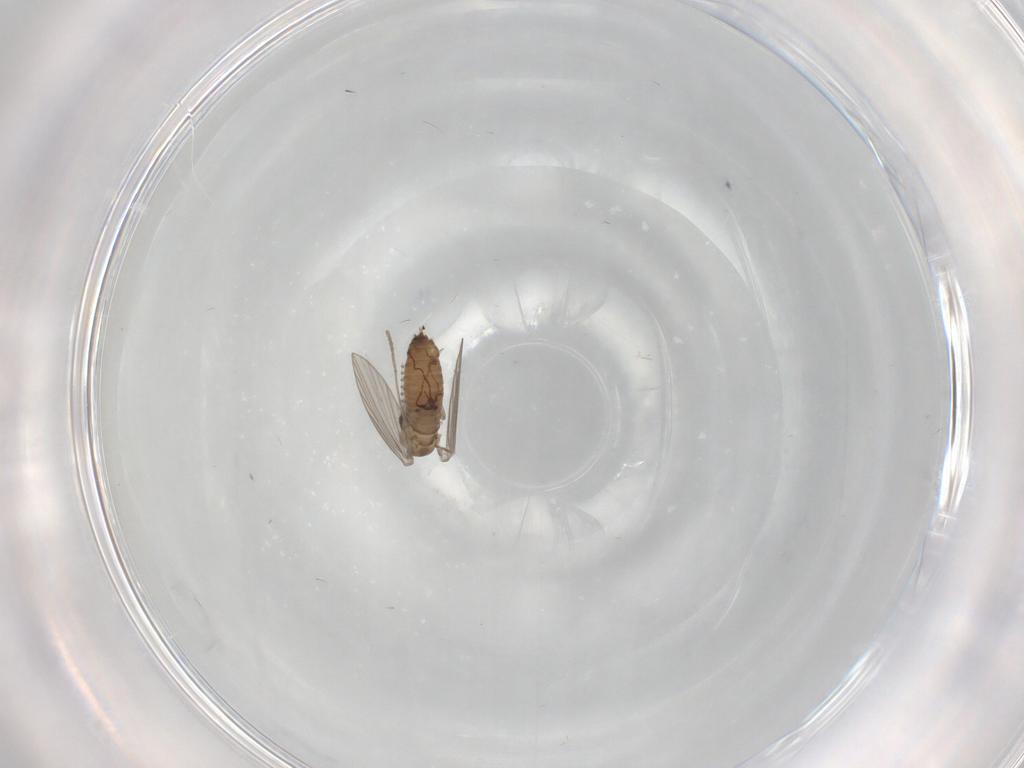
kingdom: Animalia
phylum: Arthropoda
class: Insecta
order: Diptera
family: Psychodidae
